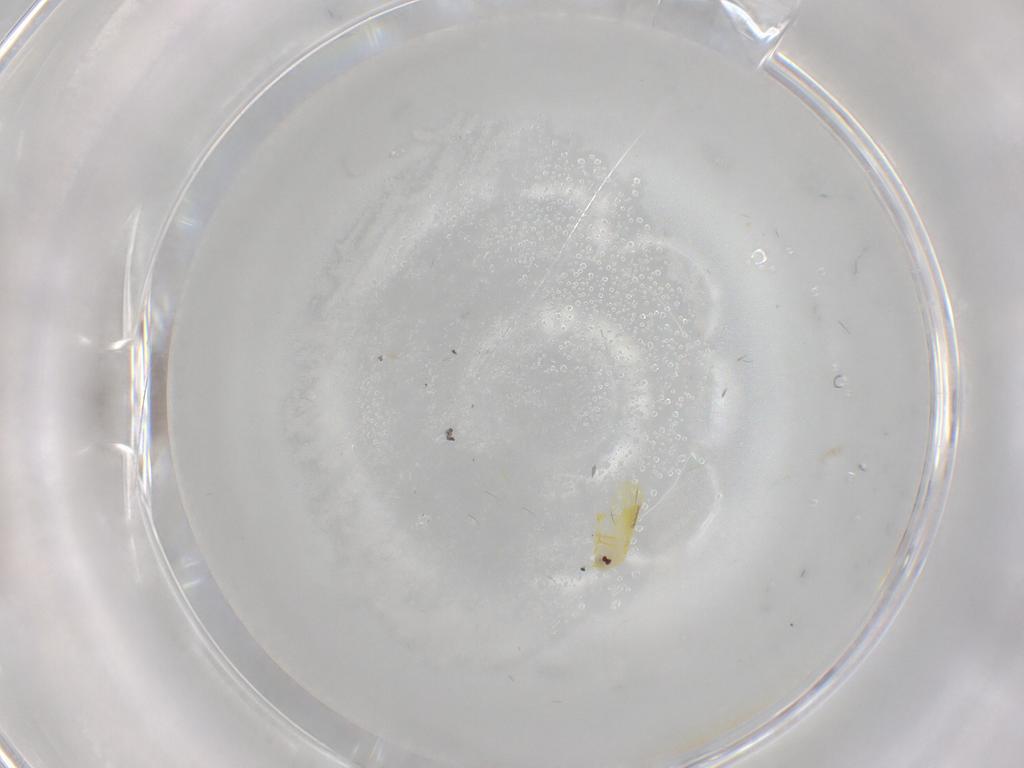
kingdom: Animalia
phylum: Arthropoda
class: Insecta
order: Hemiptera
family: Aleyrodidae
